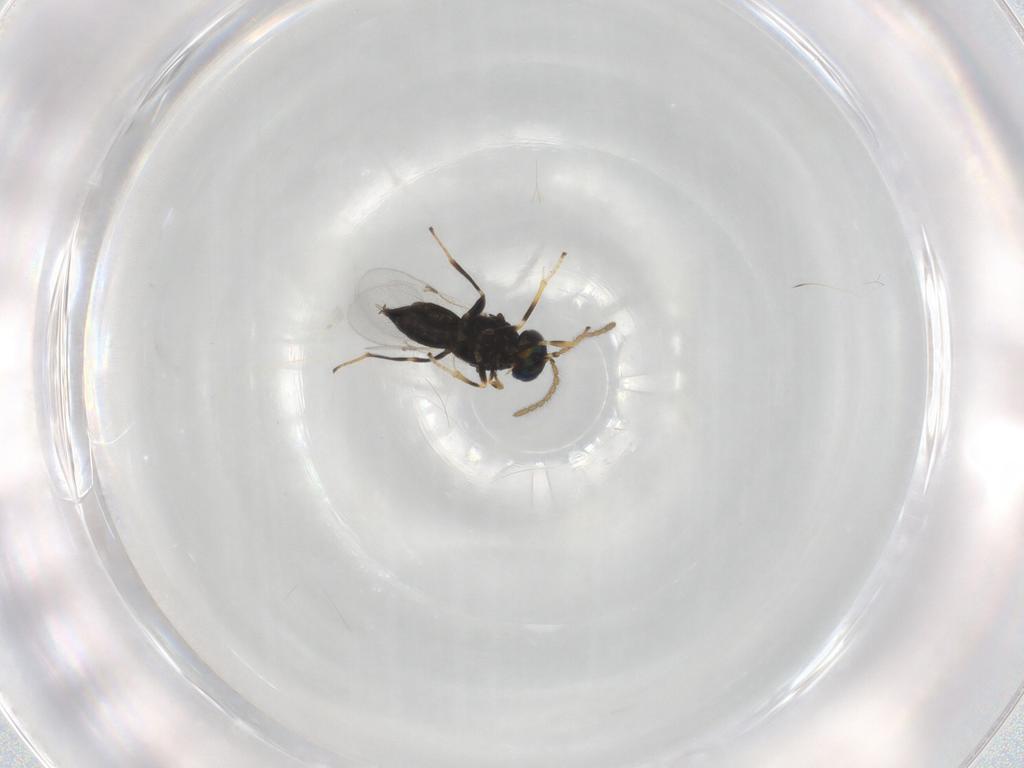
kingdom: Animalia
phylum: Arthropoda
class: Insecta
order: Hymenoptera
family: Encyrtidae
